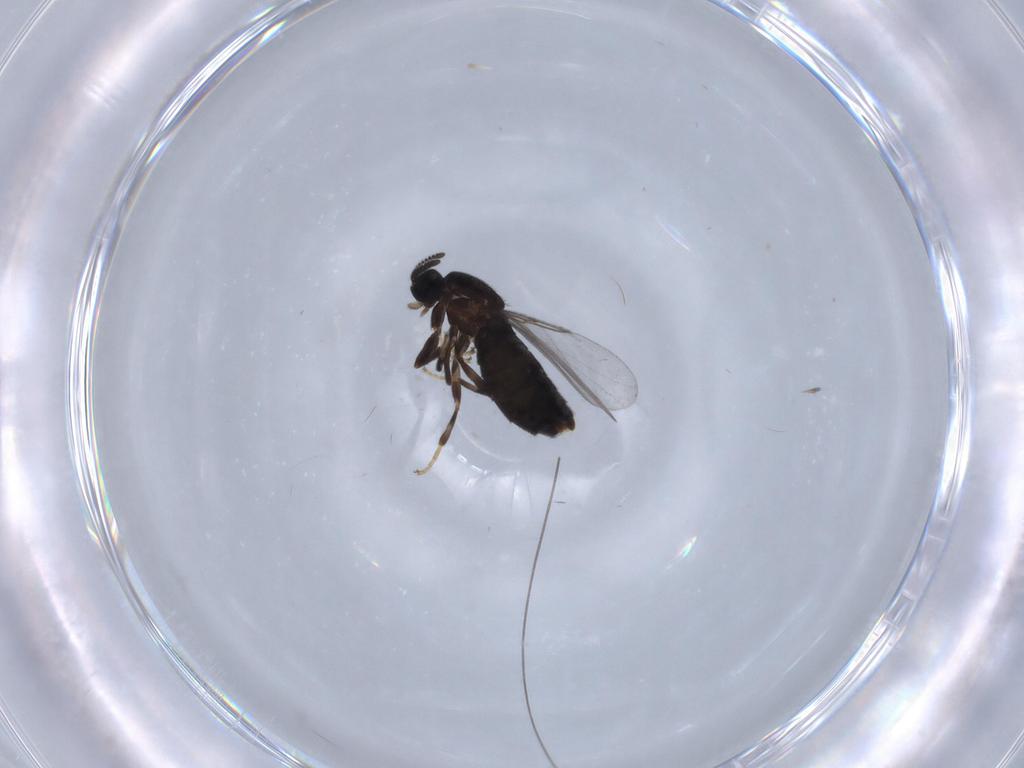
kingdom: Animalia
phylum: Arthropoda
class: Insecta
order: Diptera
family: Scatopsidae
